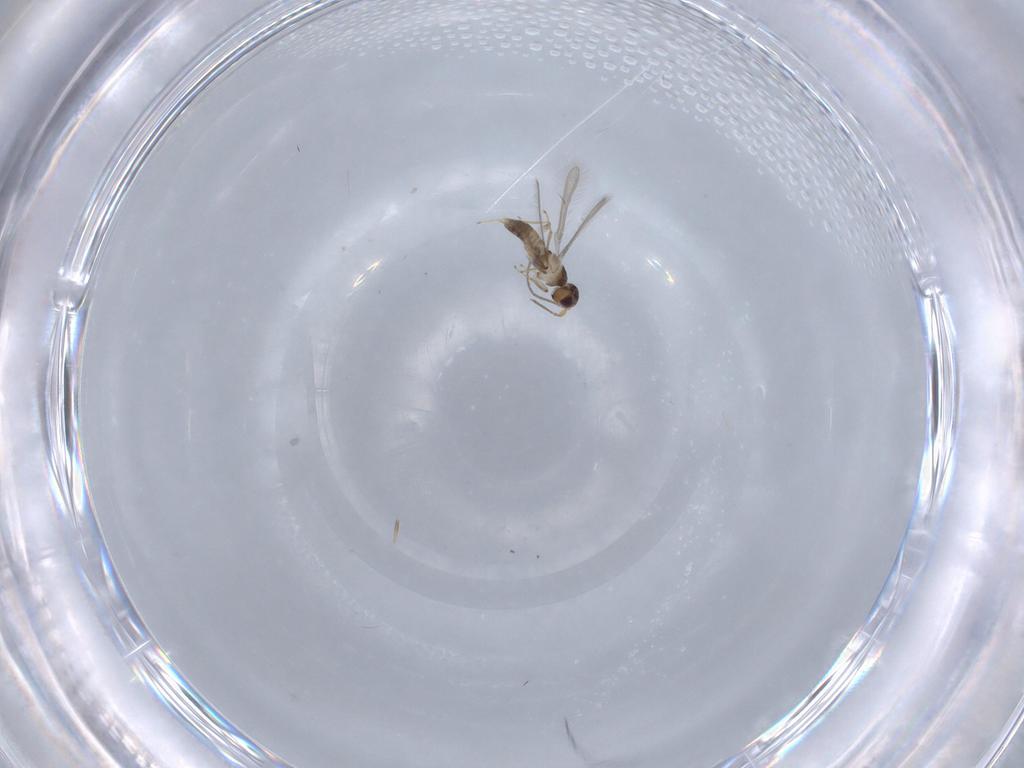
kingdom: Animalia
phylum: Arthropoda
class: Insecta
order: Hymenoptera
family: Mymaridae
